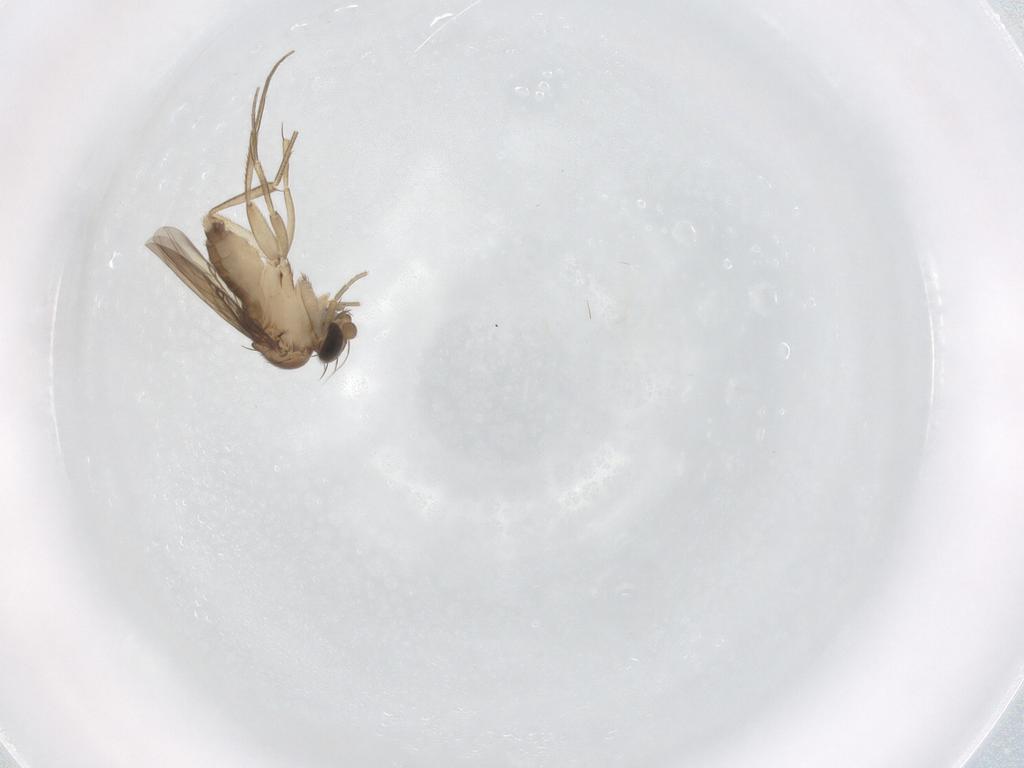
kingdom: Animalia
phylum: Arthropoda
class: Insecta
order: Diptera
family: Phoridae
